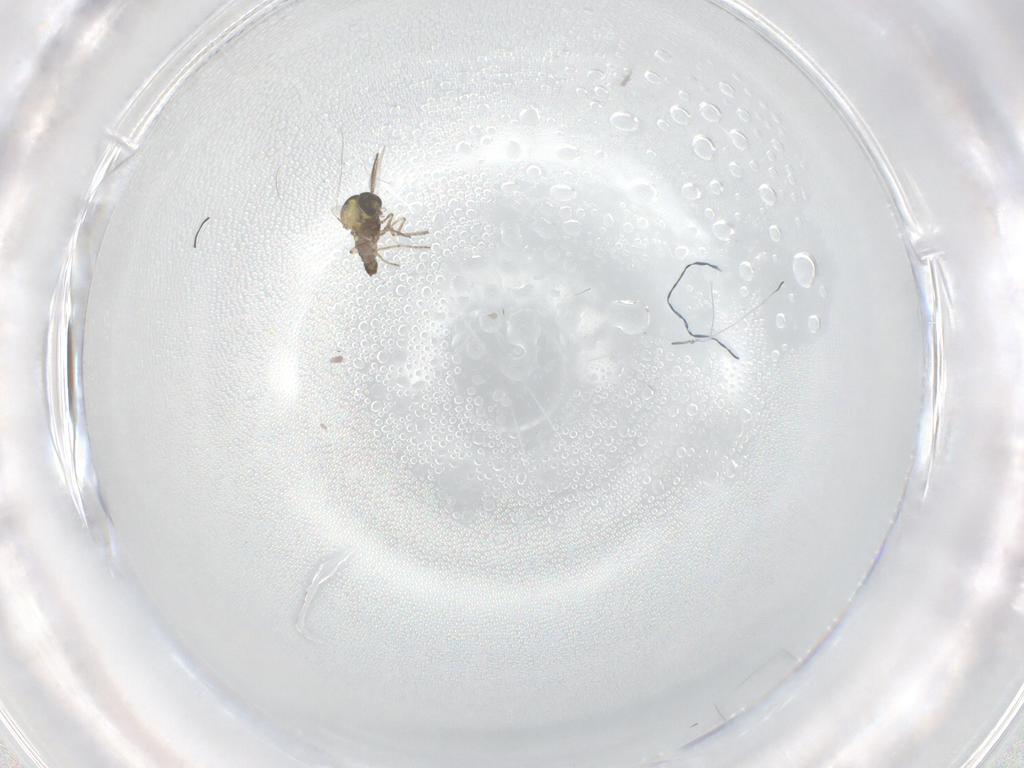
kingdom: Animalia
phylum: Arthropoda
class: Insecta
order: Diptera
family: Ceratopogonidae
